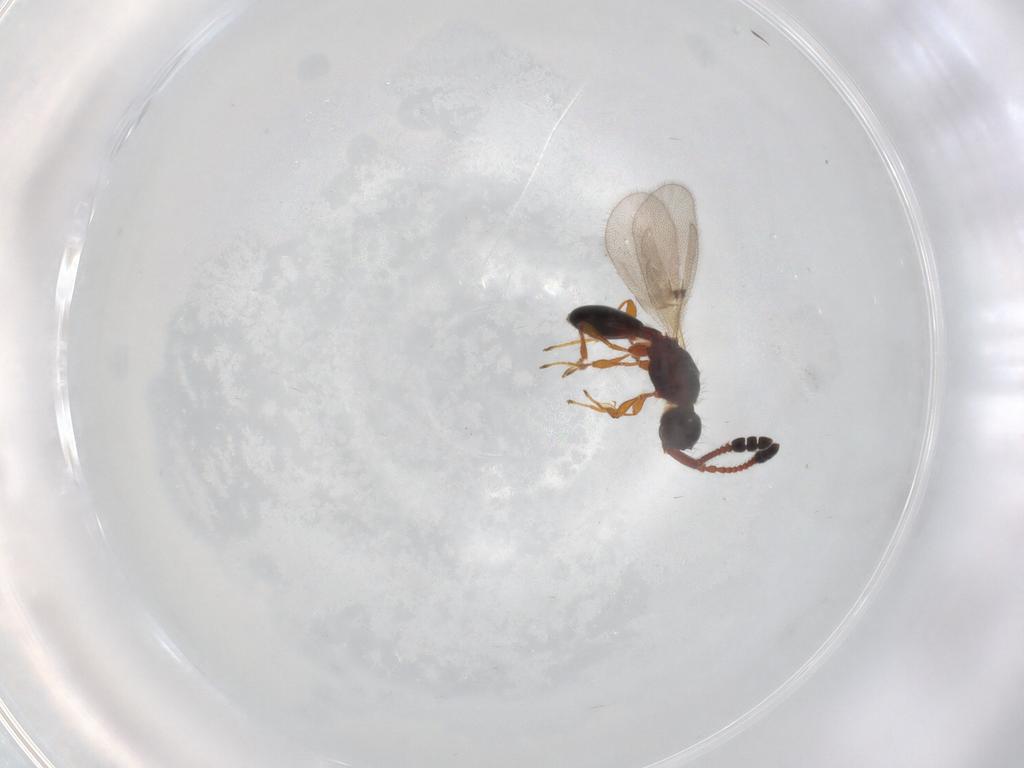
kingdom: Animalia
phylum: Arthropoda
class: Insecta
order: Hymenoptera
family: Diapriidae
